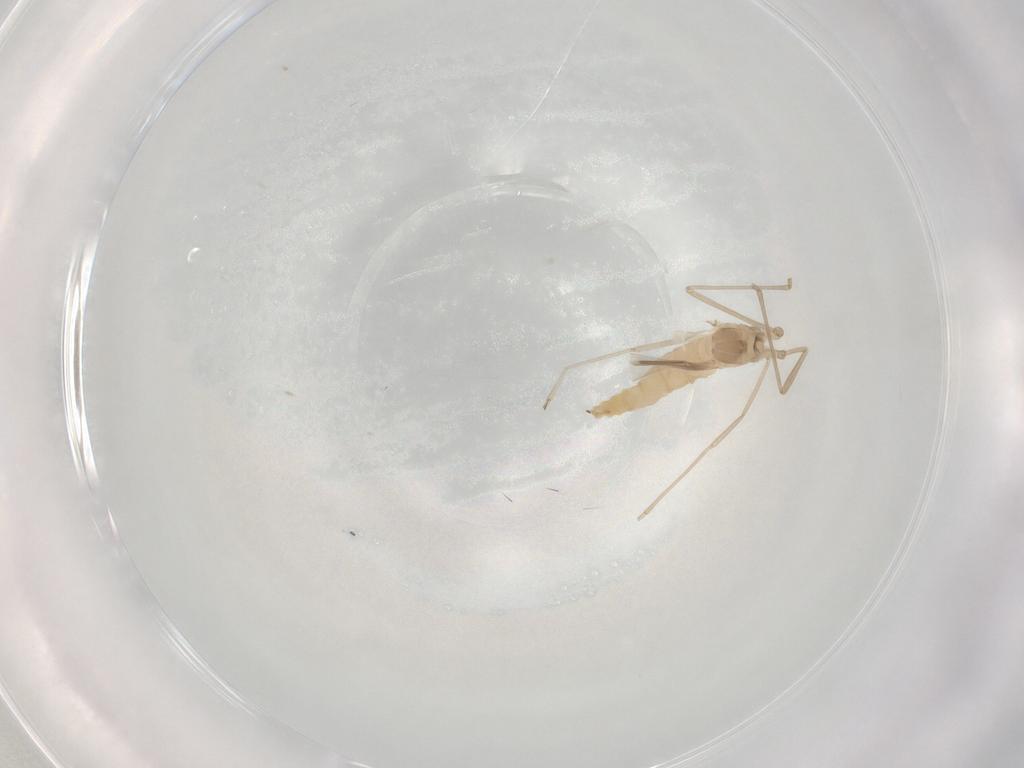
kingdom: Animalia
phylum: Arthropoda
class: Insecta
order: Diptera
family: Cecidomyiidae
